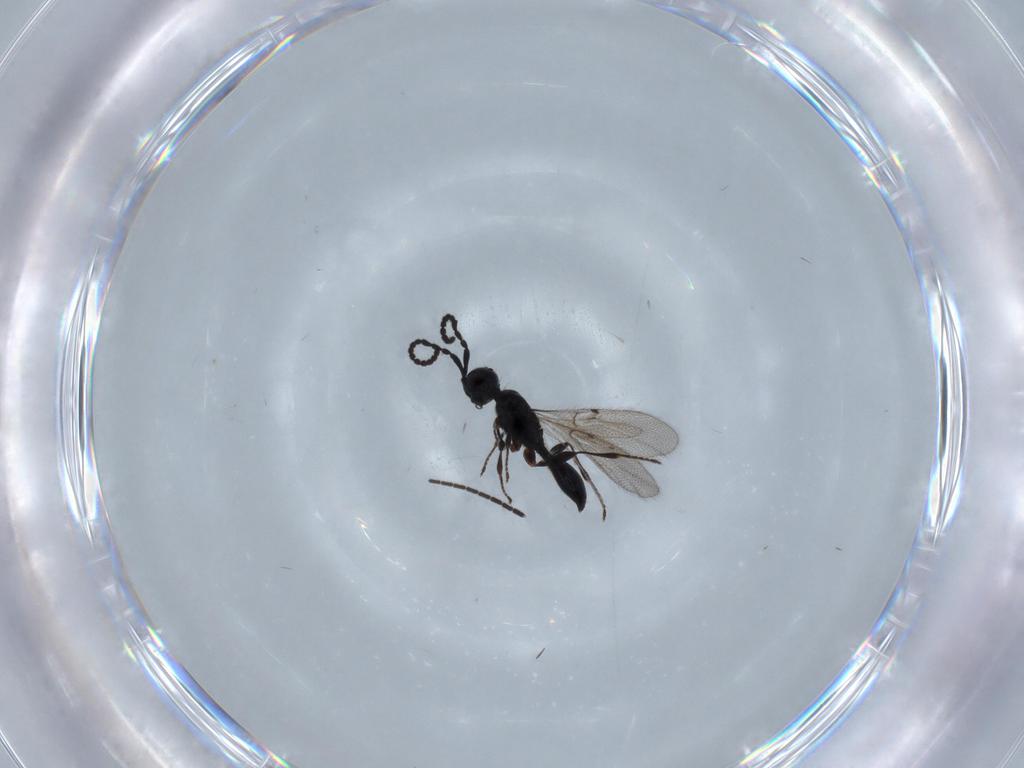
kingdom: Animalia
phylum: Arthropoda
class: Insecta
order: Hymenoptera
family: Diapriidae
